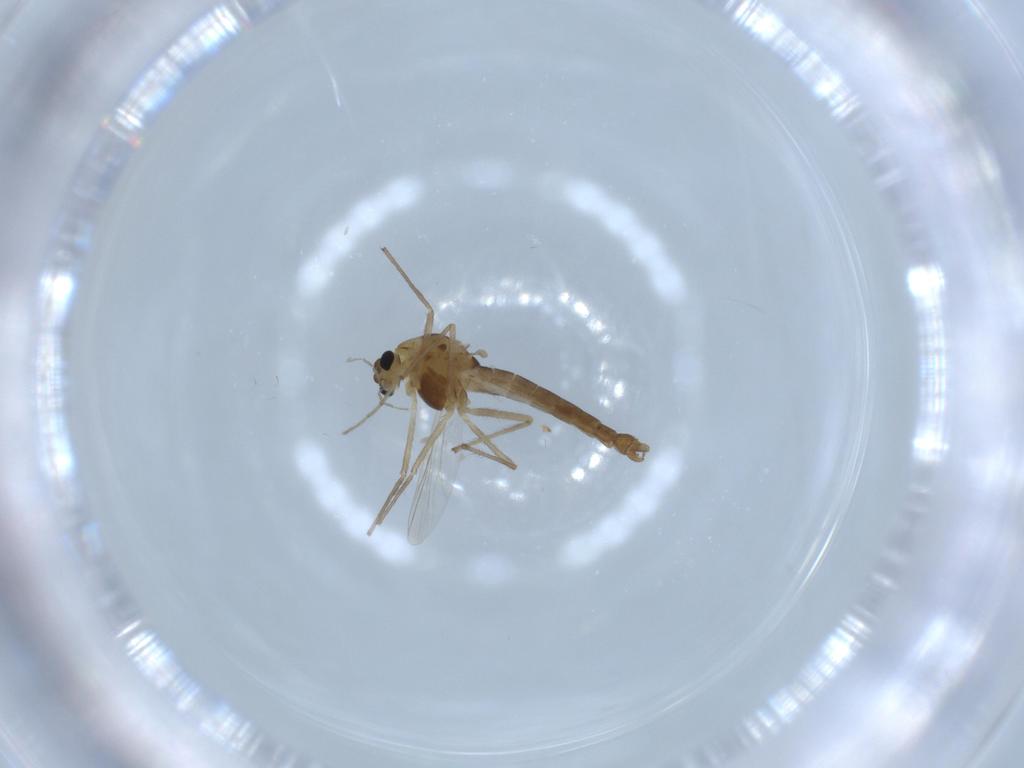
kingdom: Animalia
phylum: Arthropoda
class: Insecta
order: Diptera
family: Chironomidae
